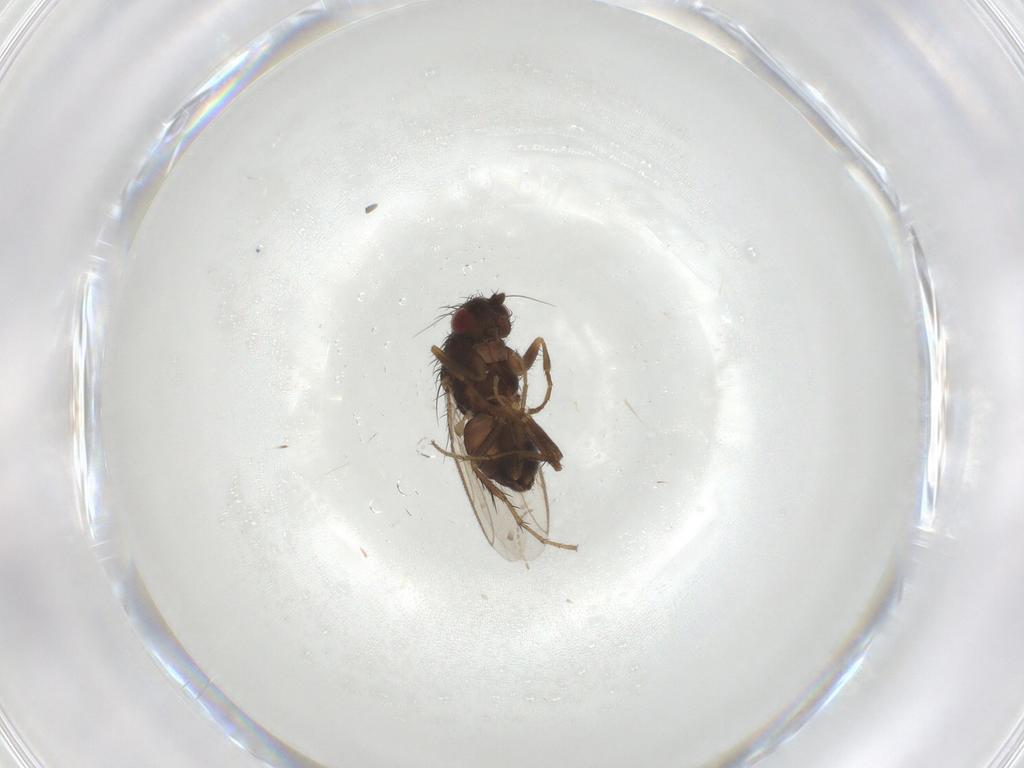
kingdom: Animalia
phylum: Arthropoda
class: Insecta
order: Diptera
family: Sphaeroceridae
